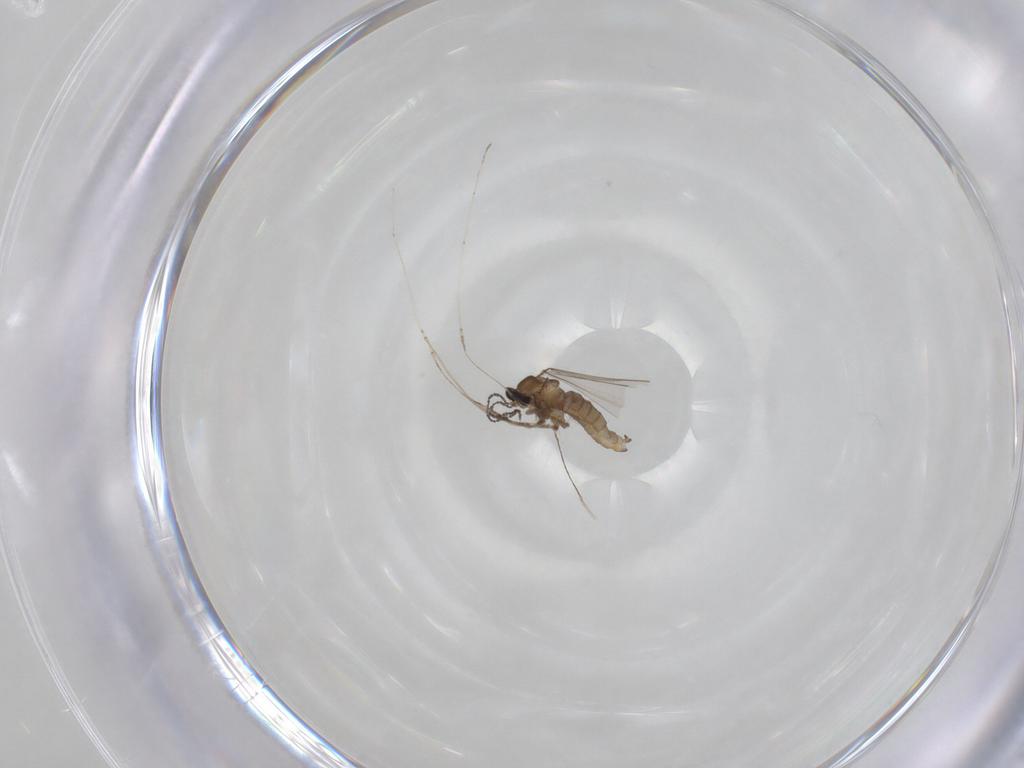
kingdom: Animalia
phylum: Arthropoda
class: Insecta
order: Diptera
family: Cecidomyiidae
